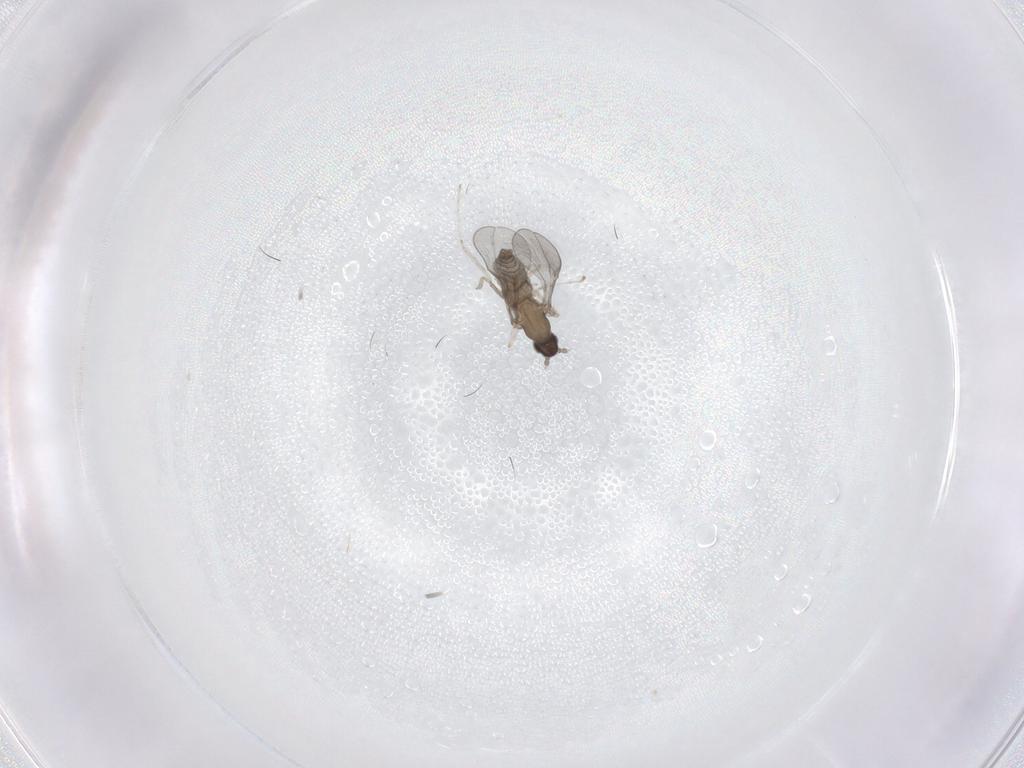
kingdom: Animalia
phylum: Arthropoda
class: Insecta
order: Diptera
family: Cecidomyiidae
